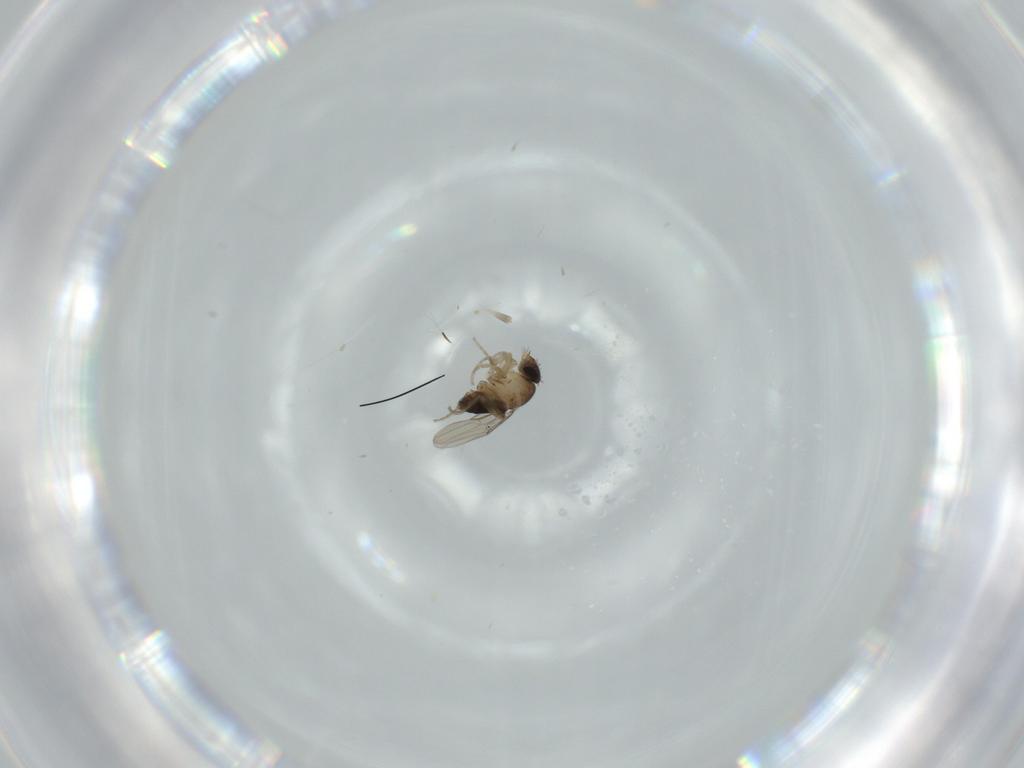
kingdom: Animalia
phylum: Arthropoda
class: Insecta
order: Diptera
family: Phoridae
